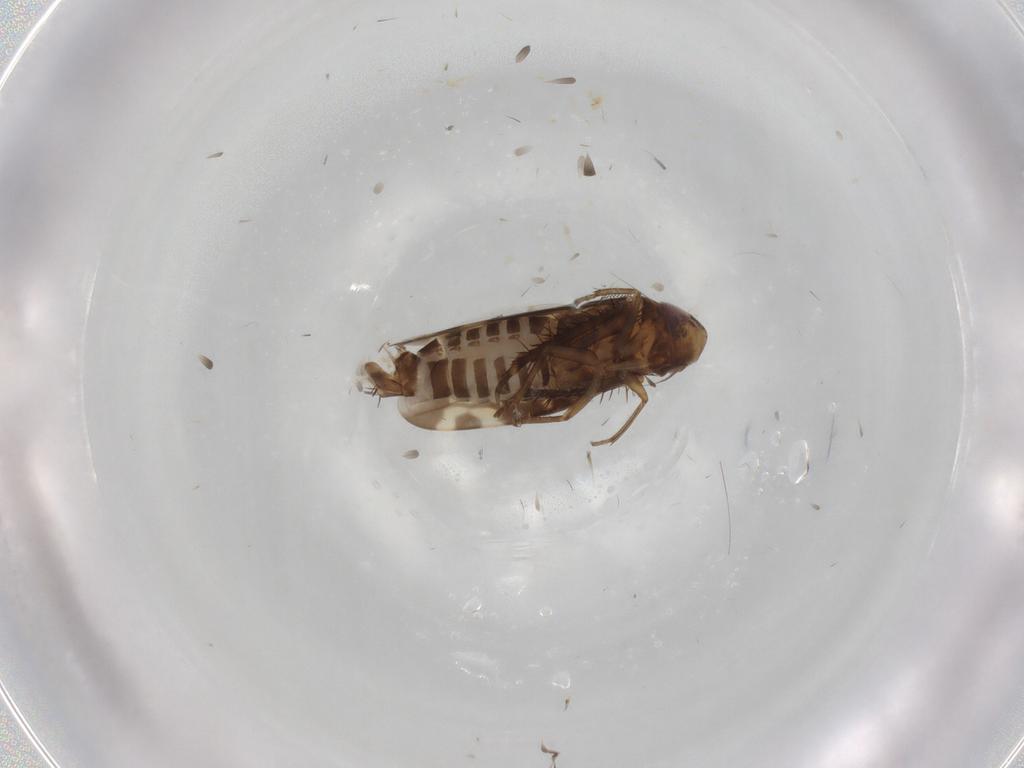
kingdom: Animalia
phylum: Arthropoda
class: Insecta
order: Hemiptera
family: Cicadellidae
